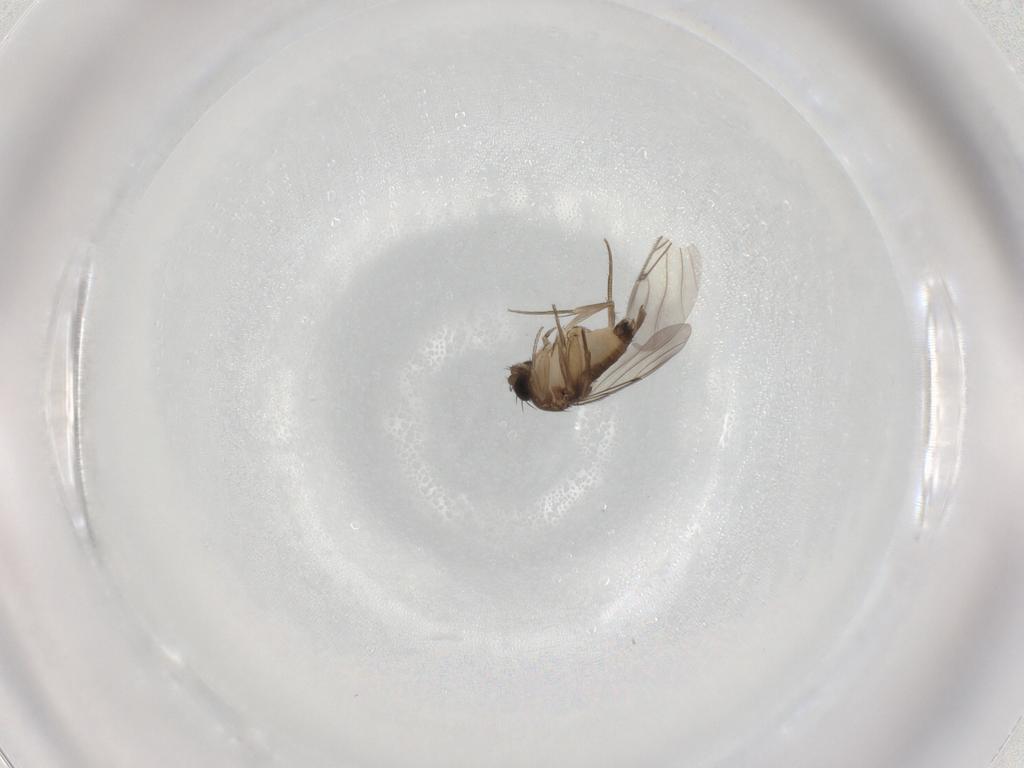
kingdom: Animalia
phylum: Arthropoda
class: Insecta
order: Diptera
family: Phoridae
